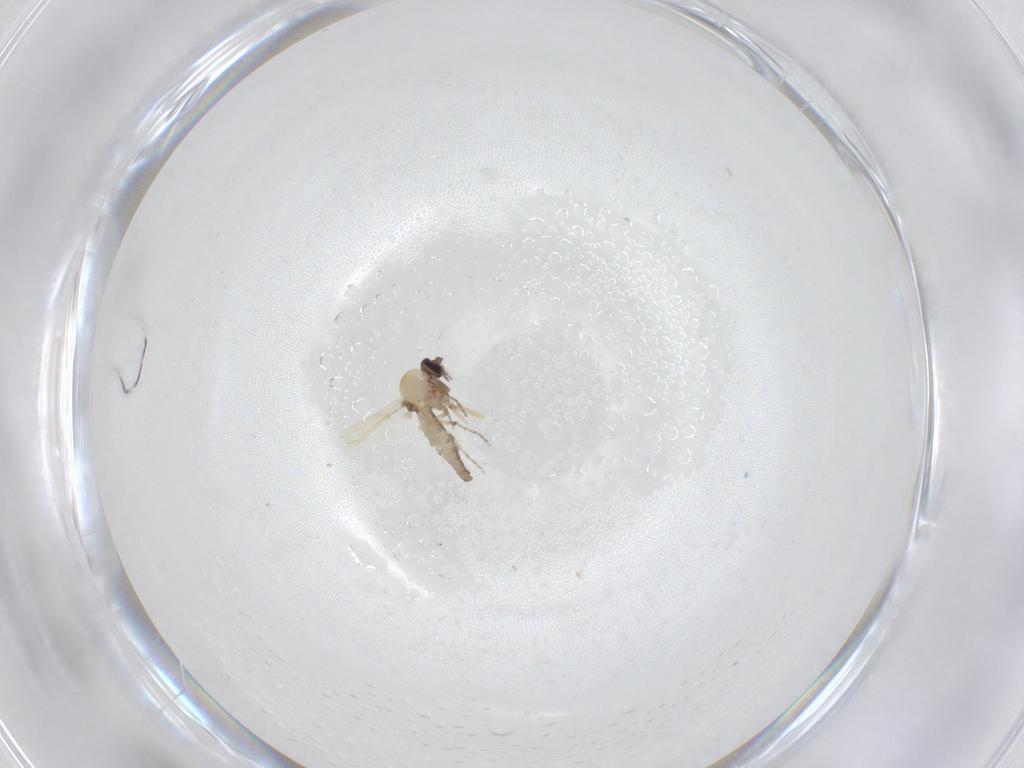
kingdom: Animalia
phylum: Arthropoda
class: Insecta
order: Diptera
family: Ceratopogonidae
